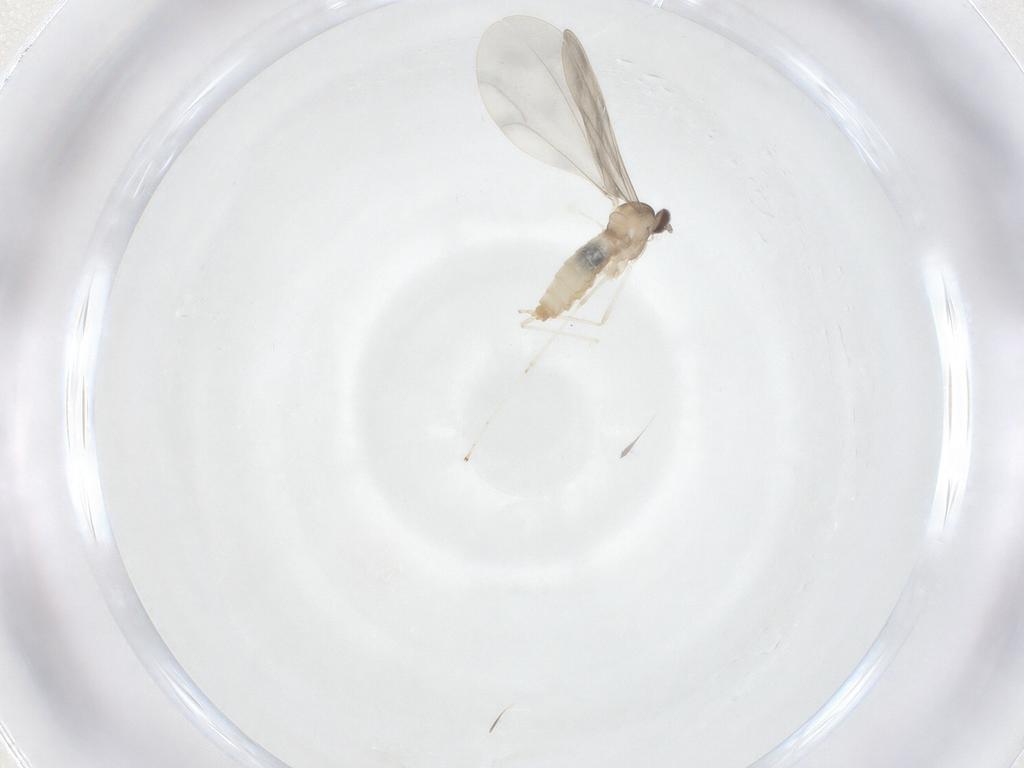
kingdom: Animalia
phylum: Arthropoda
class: Insecta
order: Diptera
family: Cecidomyiidae
